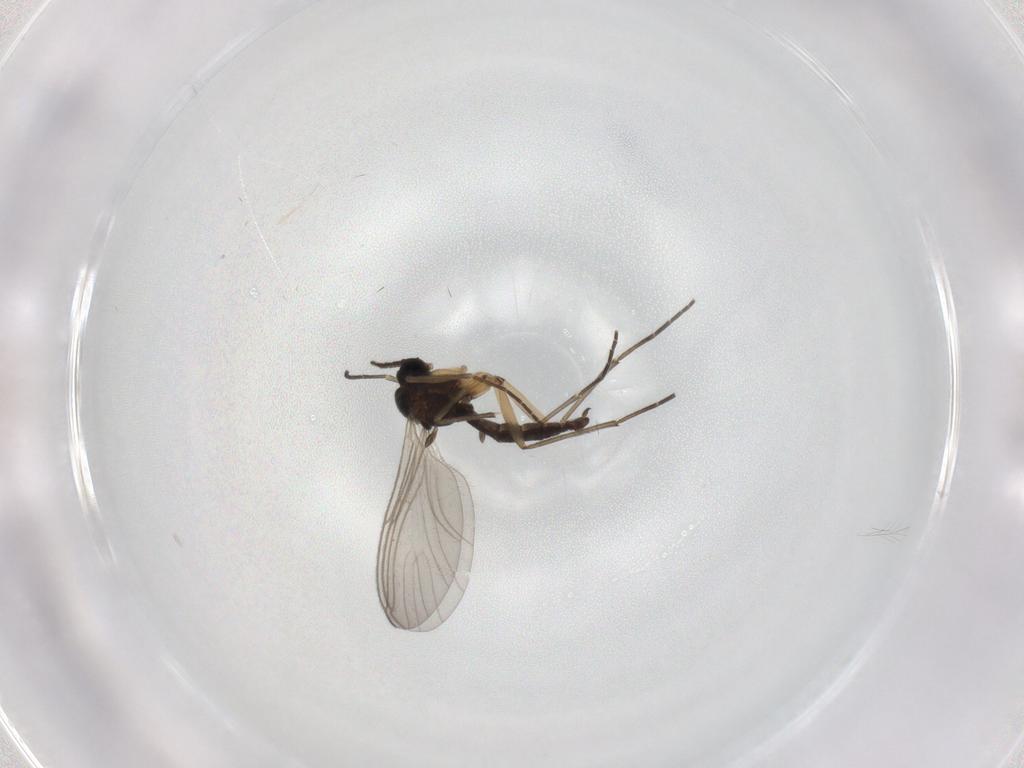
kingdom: Animalia
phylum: Arthropoda
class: Insecta
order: Diptera
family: Sciaridae
